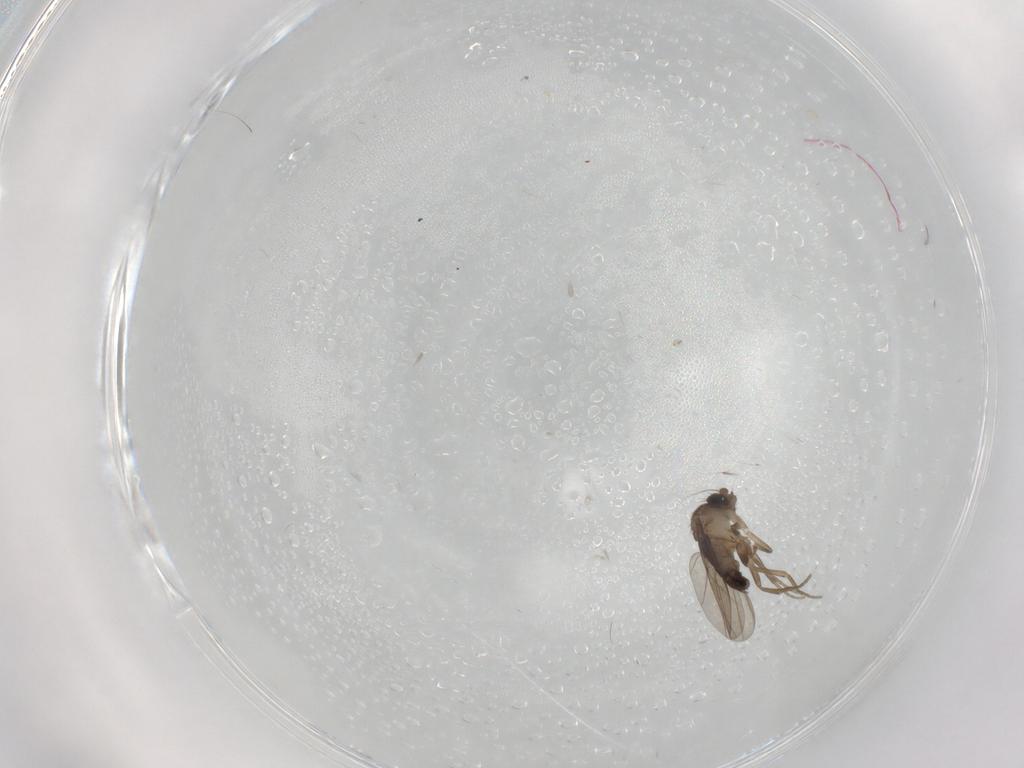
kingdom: Animalia
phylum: Arthropoda
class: Insecta
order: Diptera
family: Phoridae
